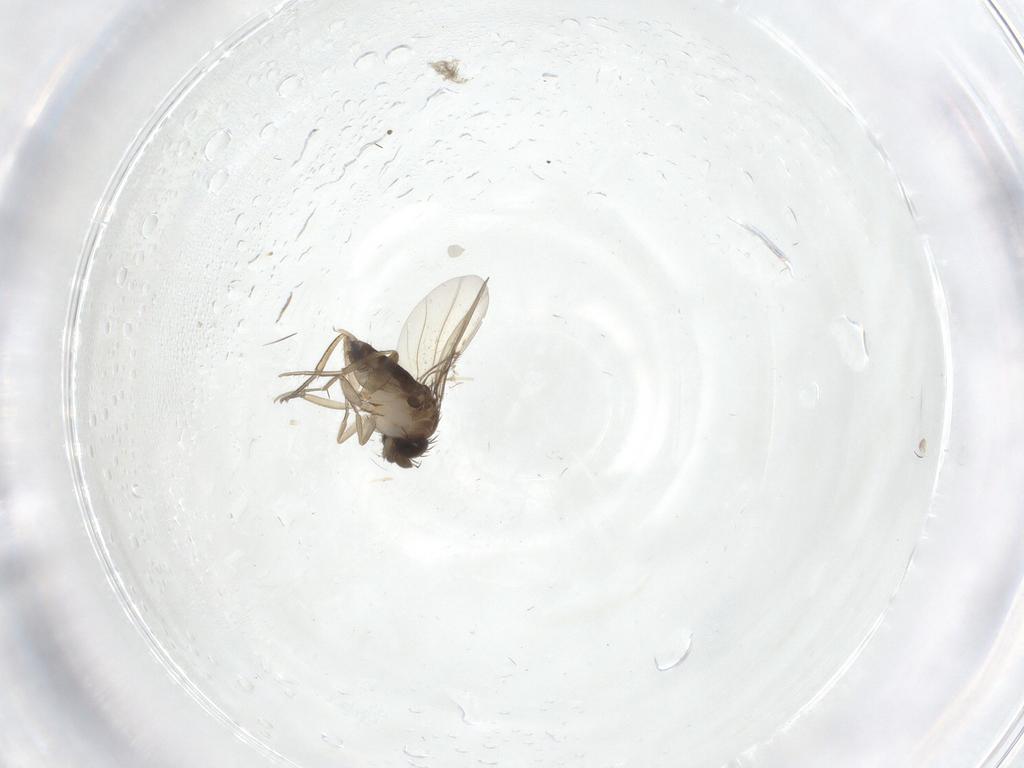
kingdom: Animalia
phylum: Arthropoda
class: Insecta
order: Diptera
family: Phoridae
